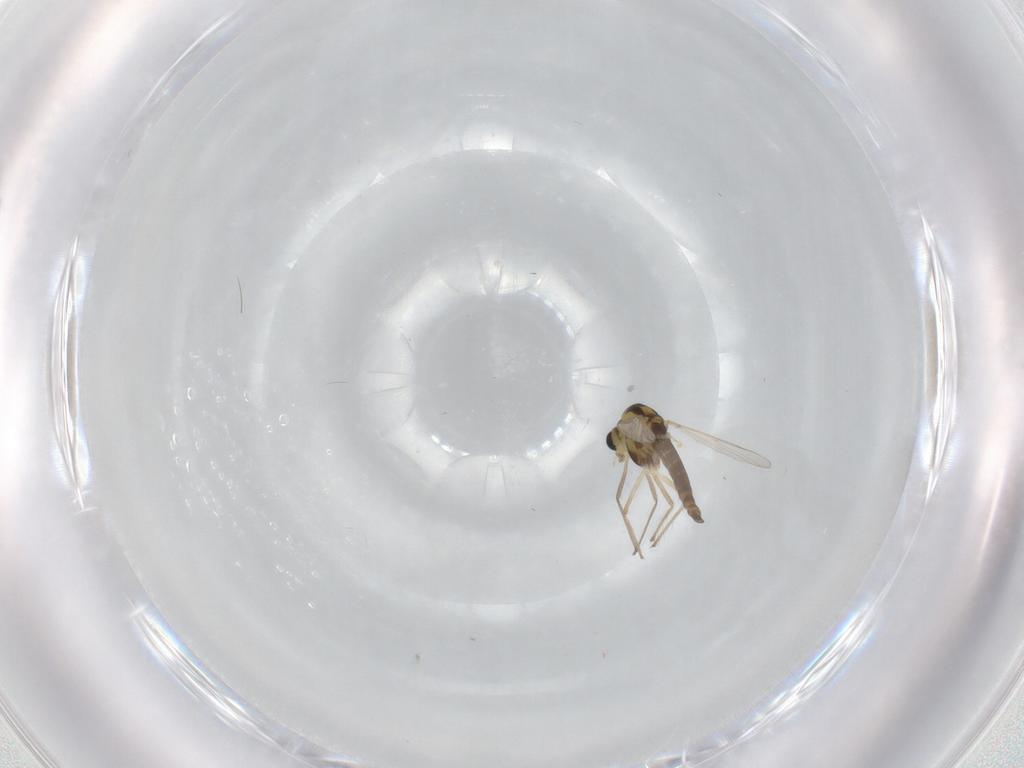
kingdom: Animalia
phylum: Arthropoda
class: Insecta
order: Diptera
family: Chironomidae
